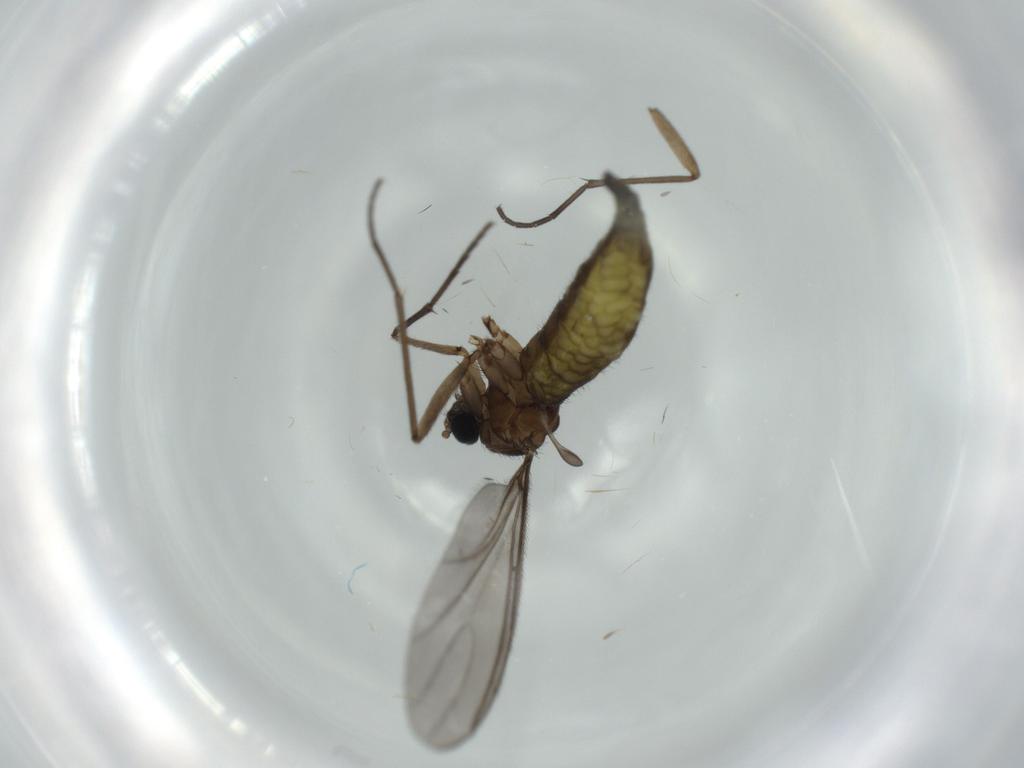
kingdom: Animalia
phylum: Arthropoda
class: Insecta
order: Diptera
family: Sciaridae
